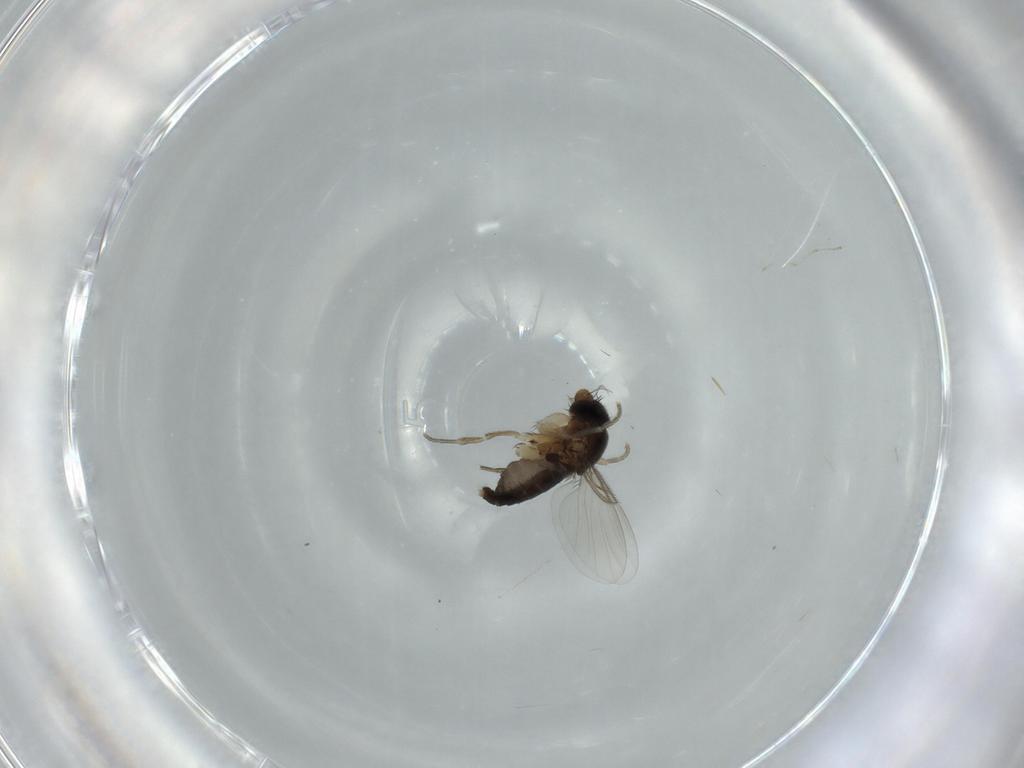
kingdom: Animalia
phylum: Arthropoda
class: Insecta
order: Diptera
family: Phoridae
